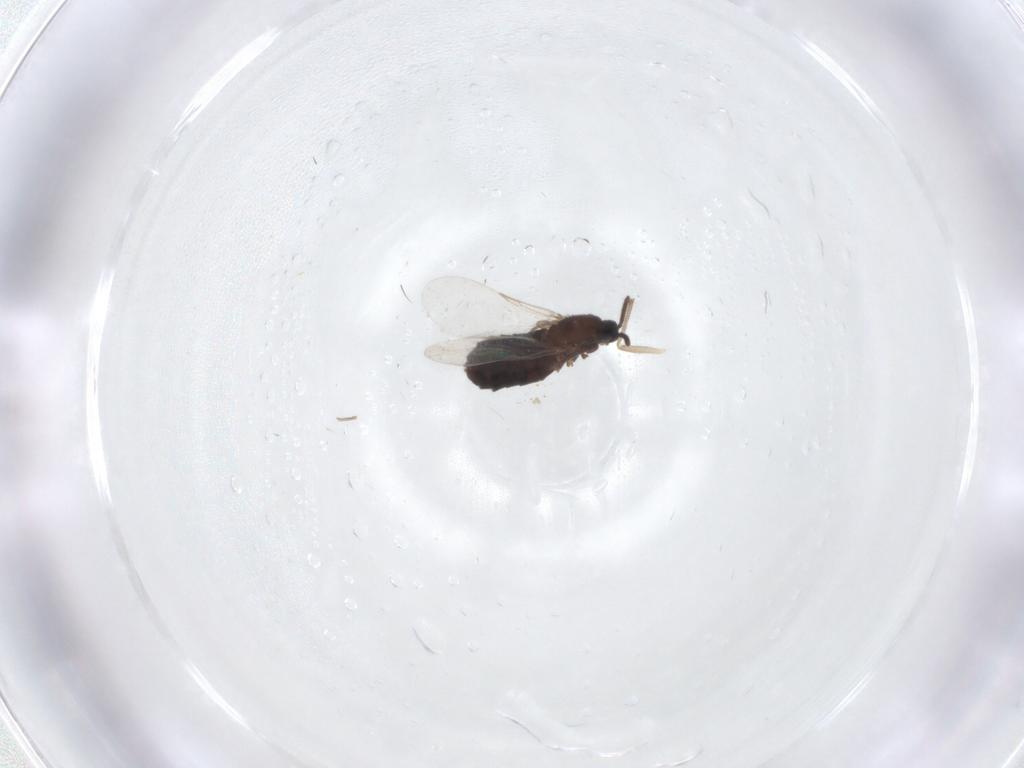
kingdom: Animalia
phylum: Arthropoda
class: Insecta
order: Diptera
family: Scatopsidae
